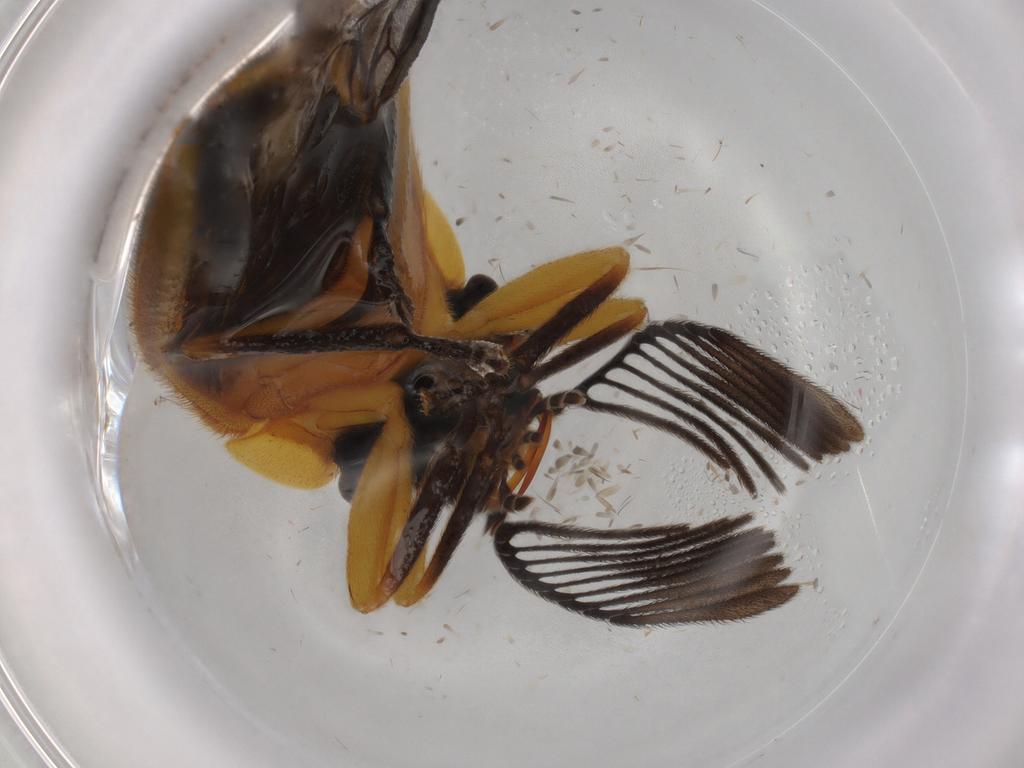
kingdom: Animalia
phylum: Arthropoda
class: Insecta
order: Coleoptera
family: Lampyridae
